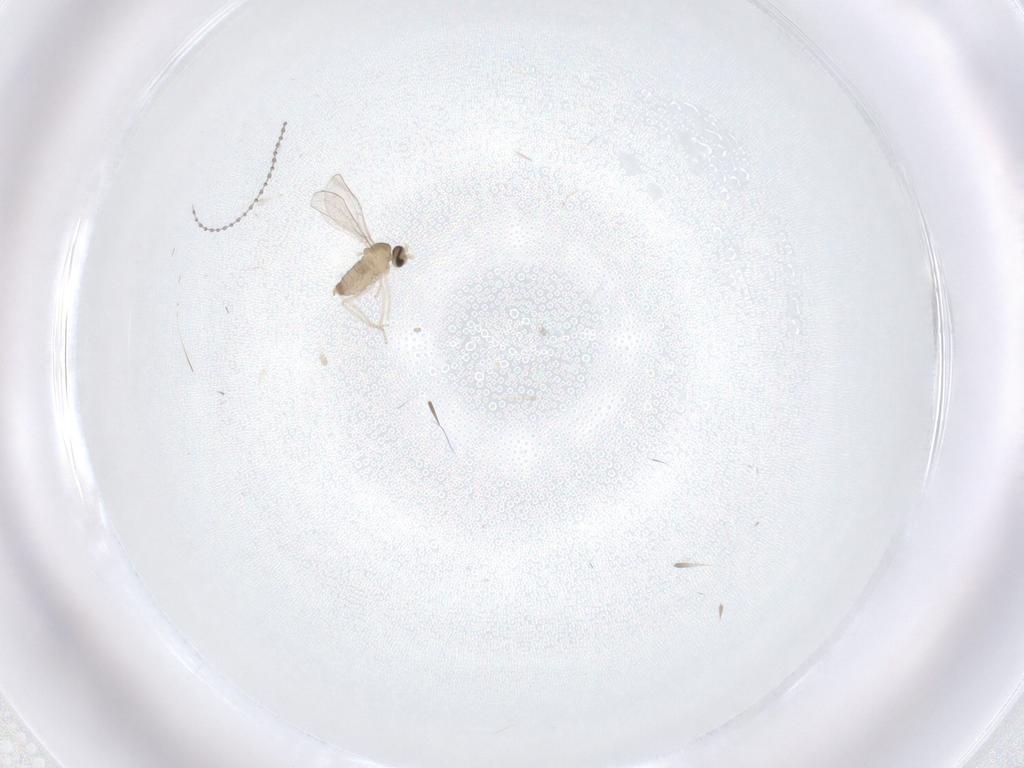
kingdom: Animalia
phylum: Arthropoda
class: Insecta
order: Diptera
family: Cecidomyiidae
